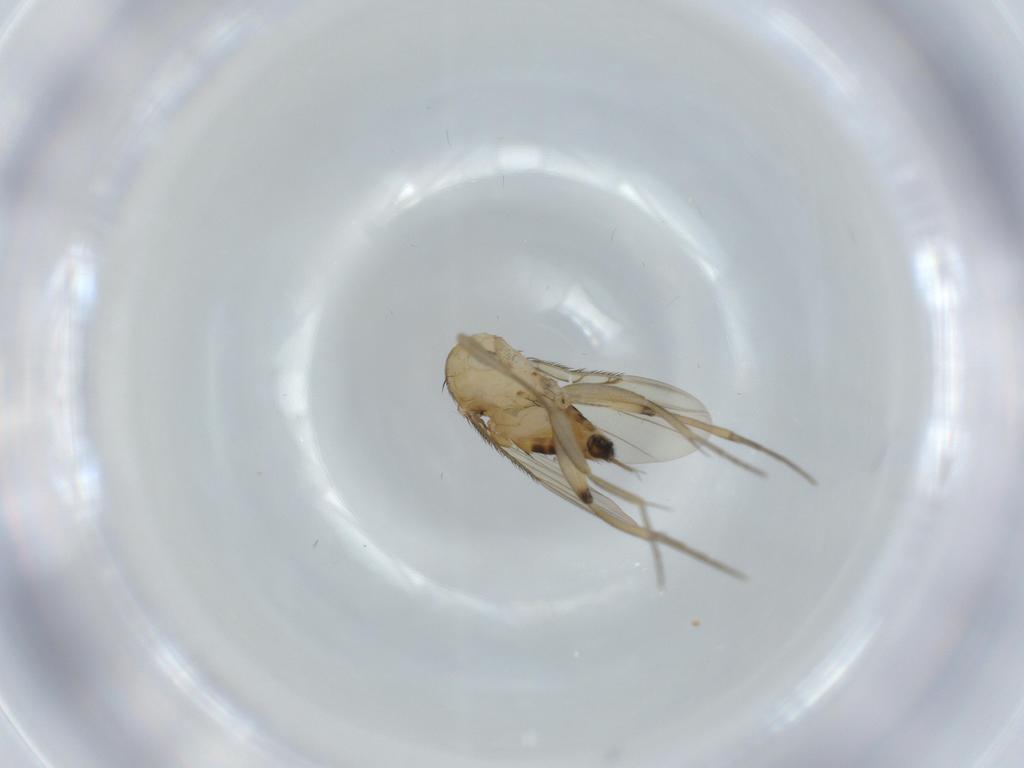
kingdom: Animalia
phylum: Arthropoda
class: Insecta
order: Diptera
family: Phoridae
